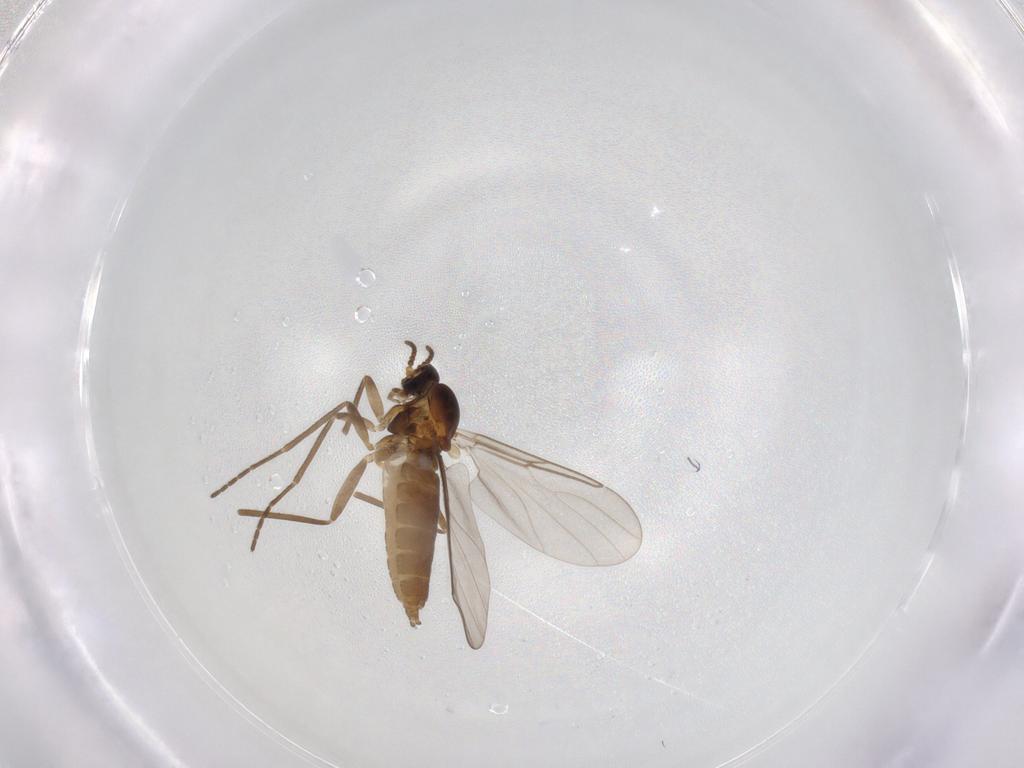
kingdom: Animalia
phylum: Arthropoda
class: Insecta
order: Diptera
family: Cecidomyiidae
